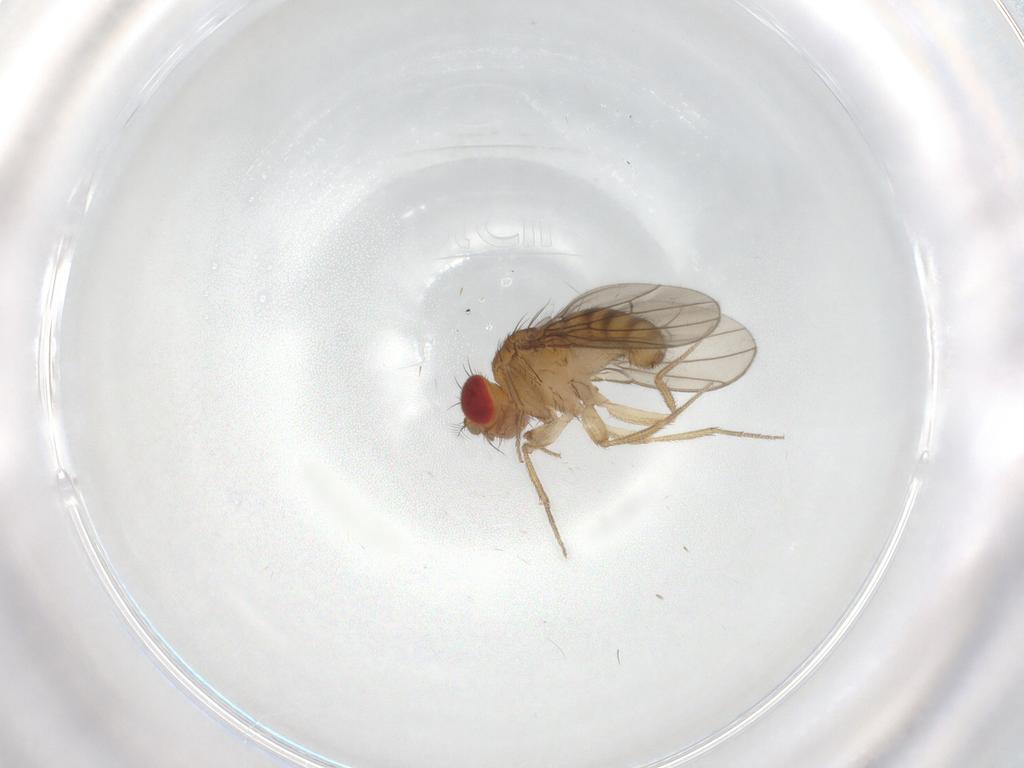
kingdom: Animalia
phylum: Arthropoda
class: Insecta
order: Diptera
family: Drosophilidae
